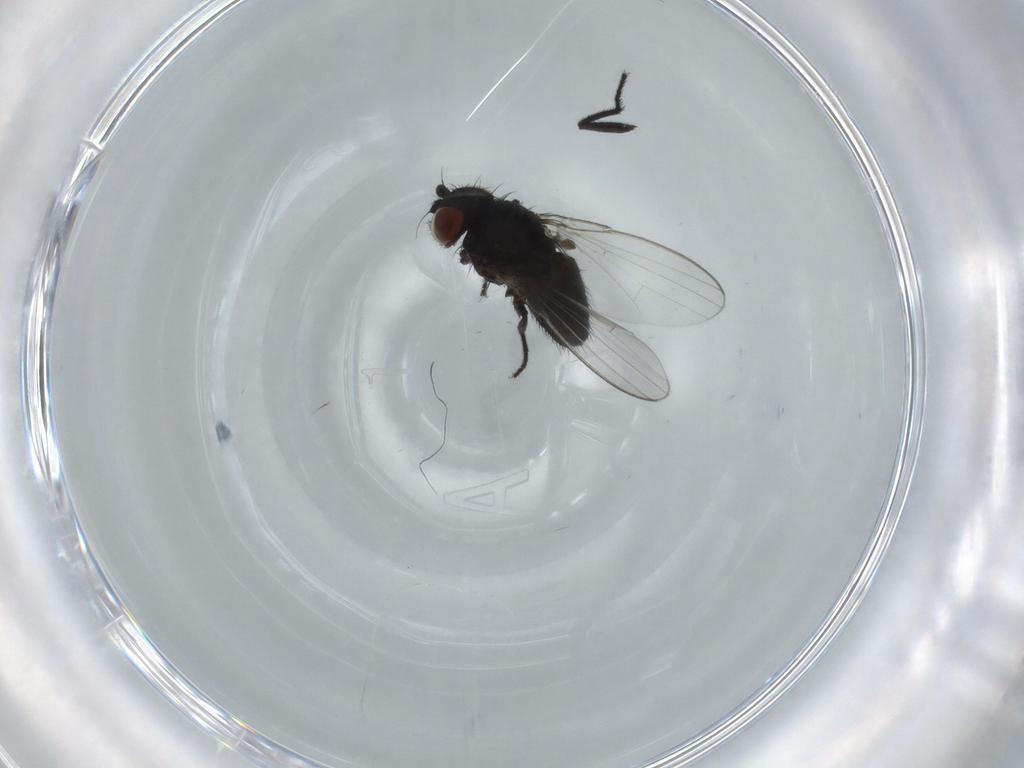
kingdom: Animalia
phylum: Arthropoda
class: Insecta
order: Diptera
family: Milichiidae
